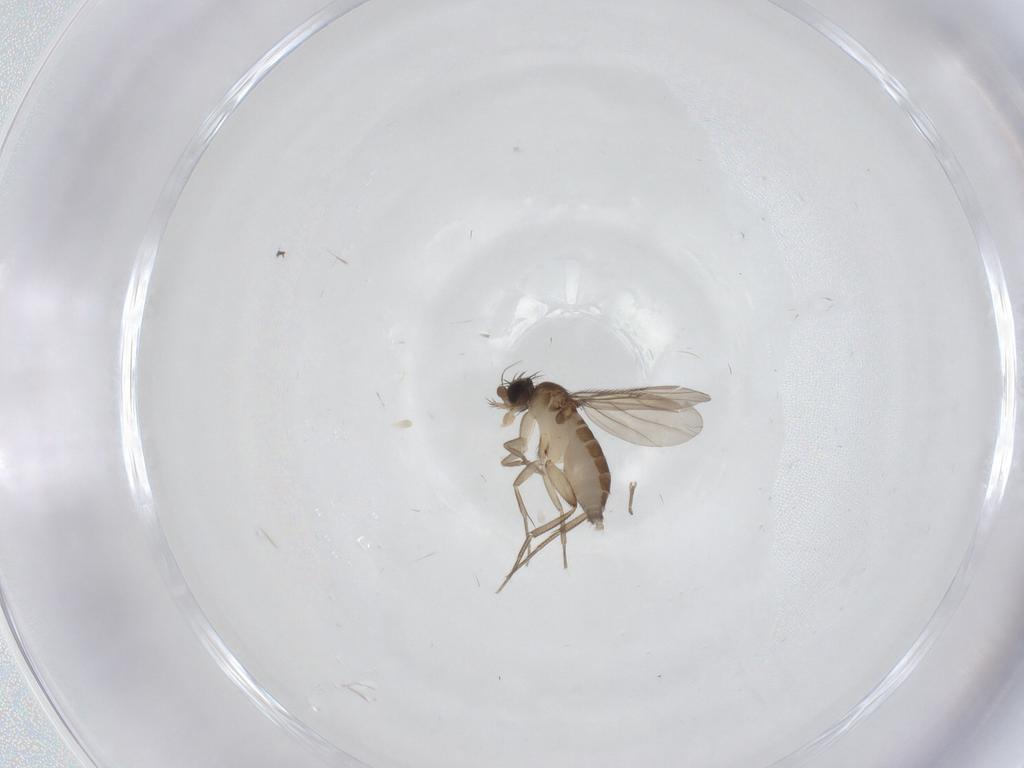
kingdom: Animalia
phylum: Arthropoda
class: Insecta
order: Diptera
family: Phoridae
